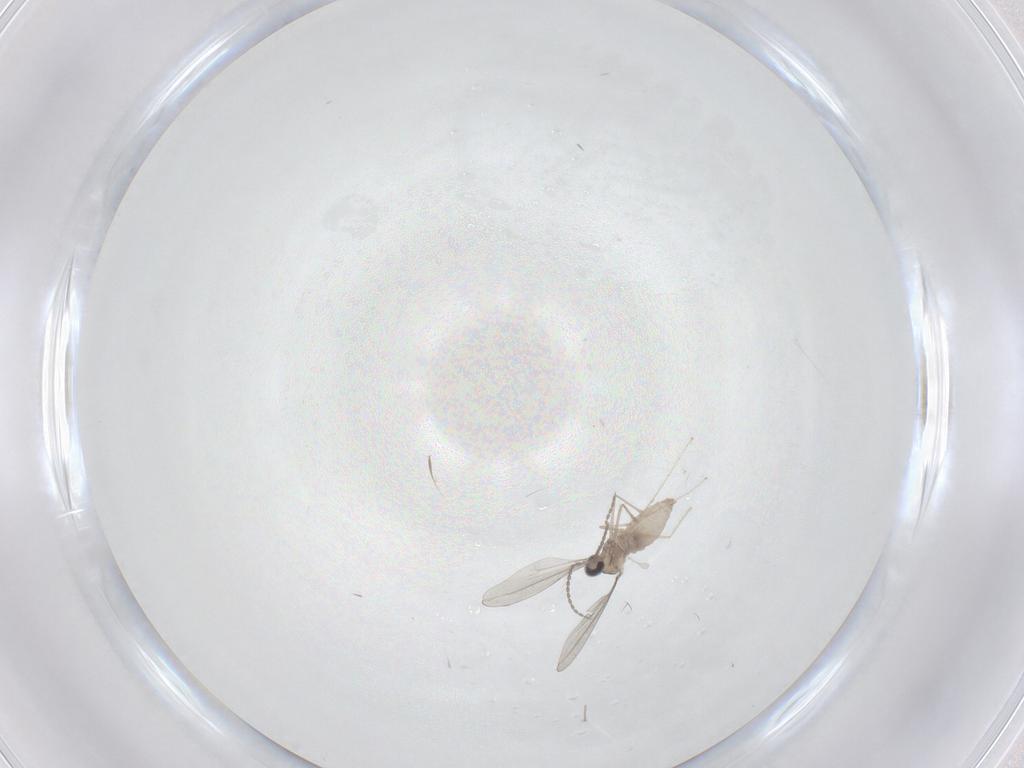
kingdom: Animalia
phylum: Arthropoda
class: Insecta
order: Diptera
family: Cecidomyiidae
